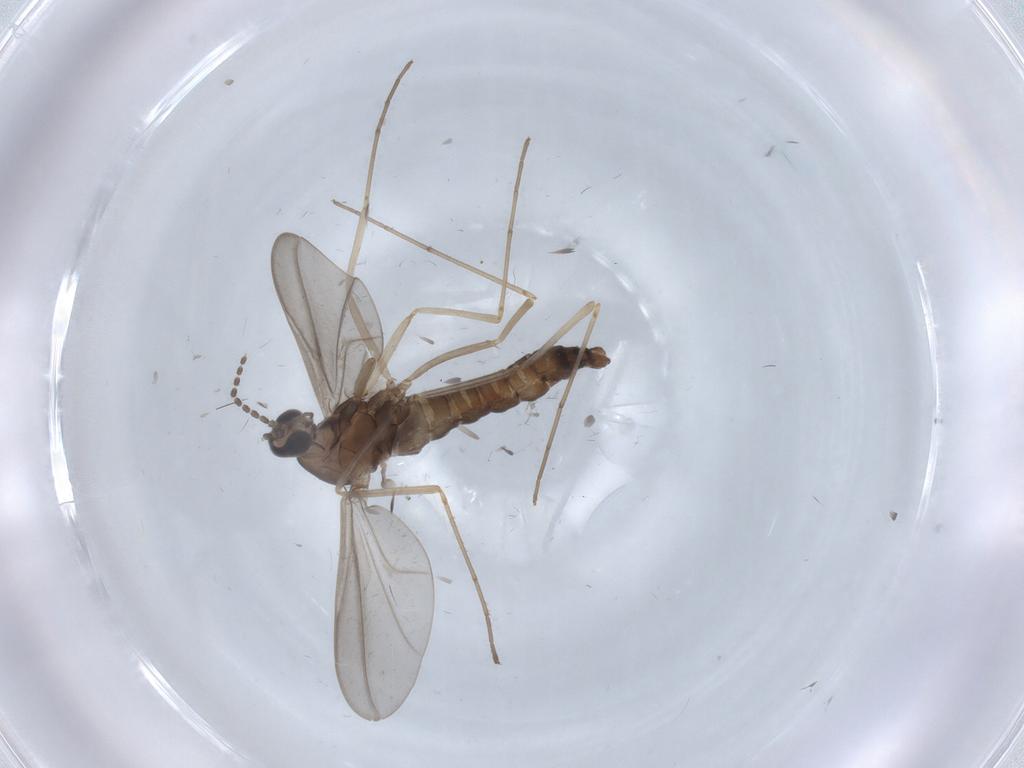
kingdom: Animalia
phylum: Arthropoda
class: Insecta
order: Diptera
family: Cecidomyiidae
